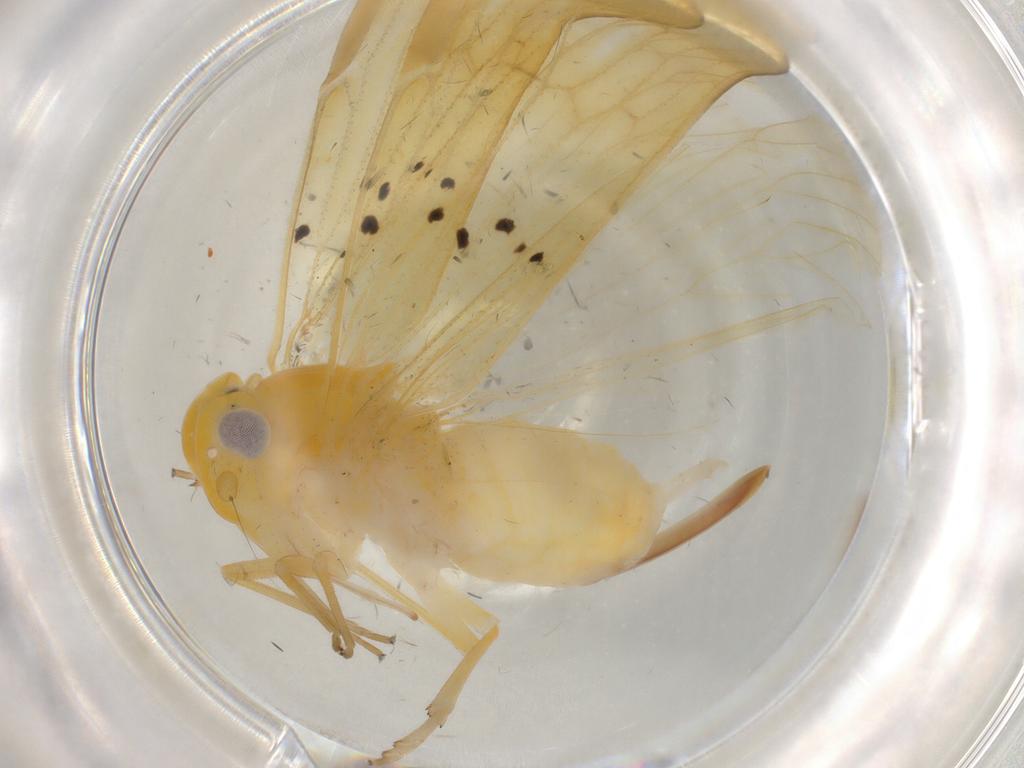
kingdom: Animalia
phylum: Arthropoda
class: Insecta
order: Hemiptera
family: Cixiidae
